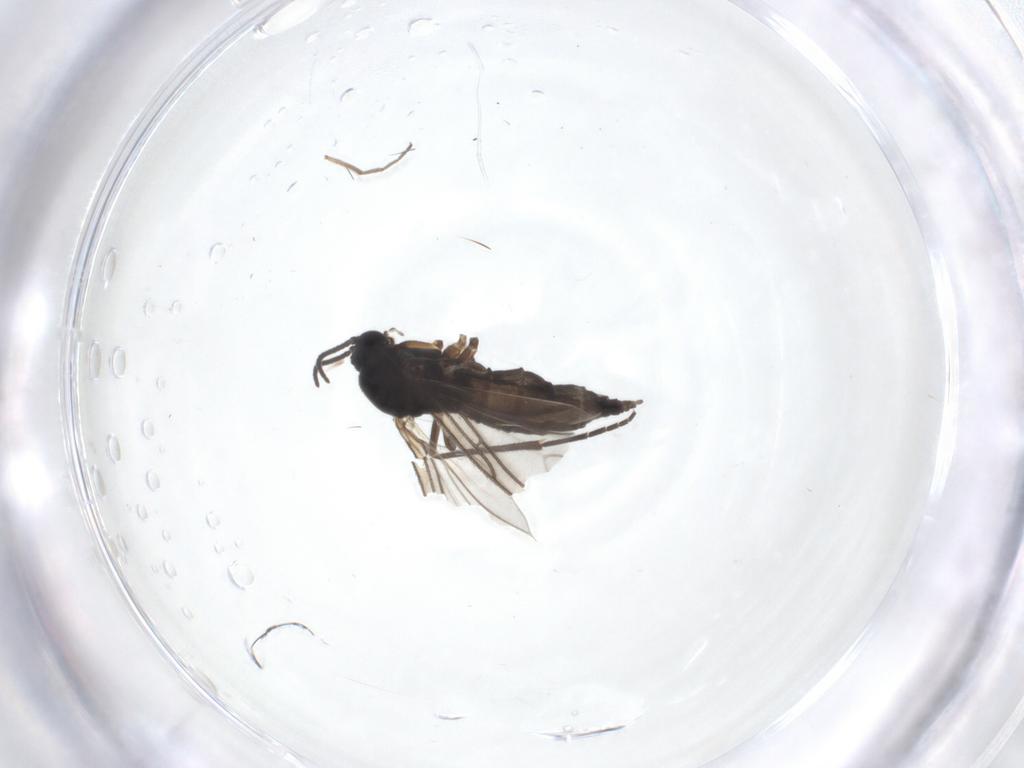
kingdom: Animalia
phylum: Arthropoda
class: Insecta
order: Diptera
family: Sciaridae
